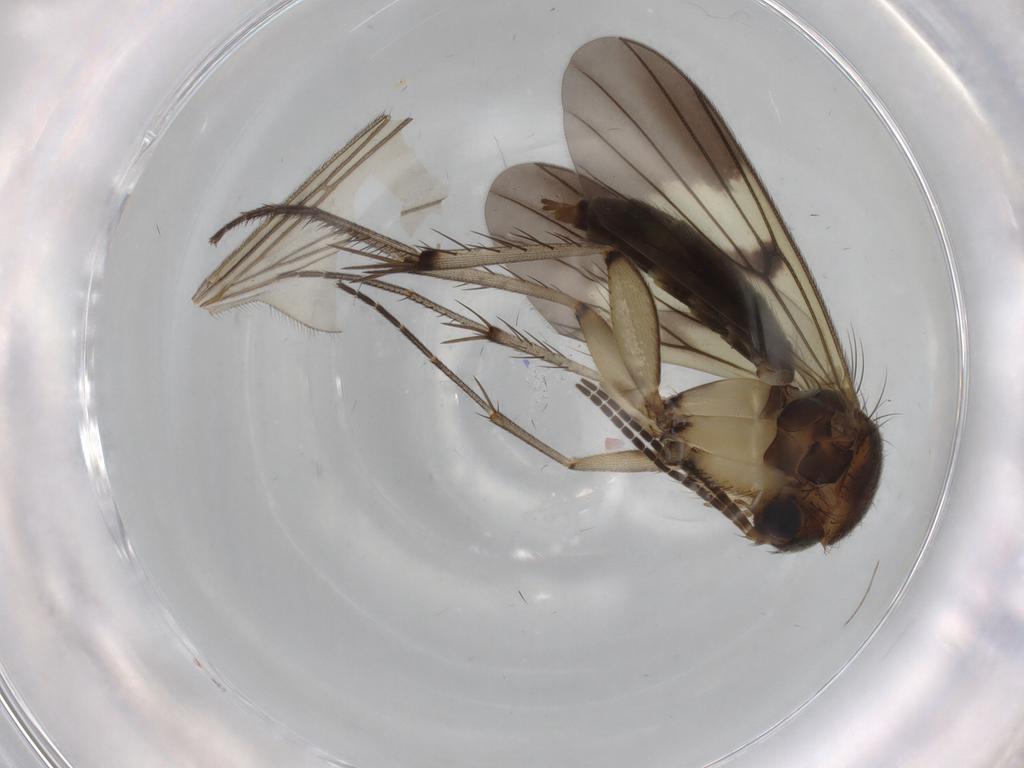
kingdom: Animalia
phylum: Arthropoda
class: Insecta
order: Diptera
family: Sciaridae
